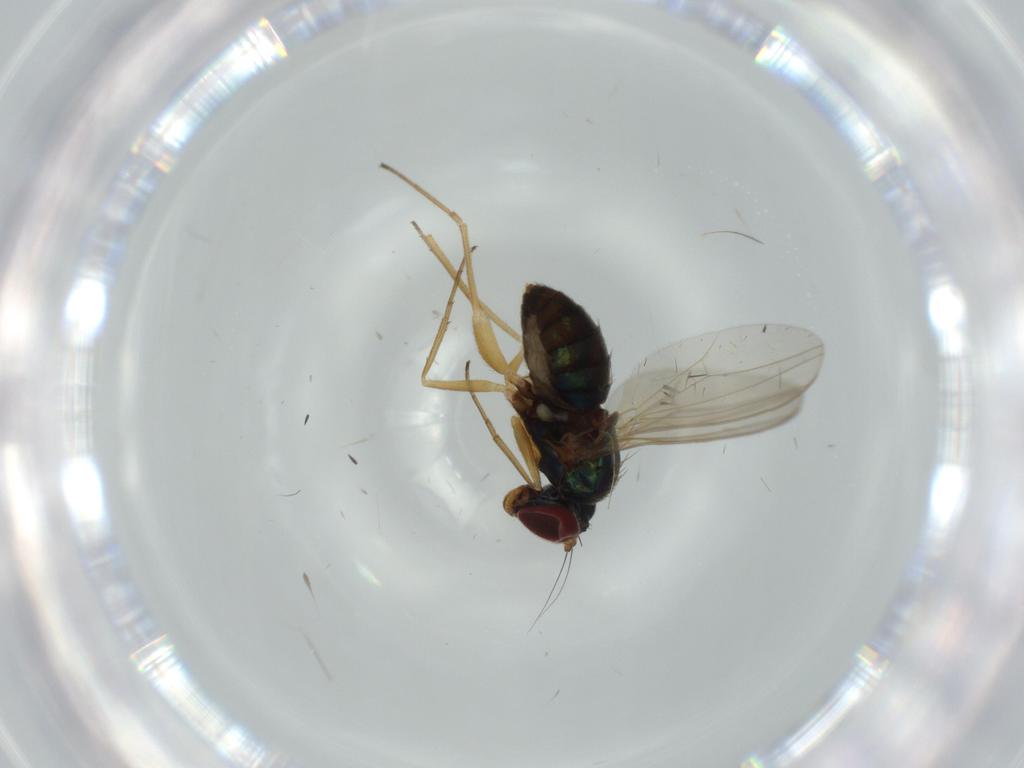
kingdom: Animalia
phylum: Arthropoda
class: Insecta
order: Diptera
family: Dolichopodidae
